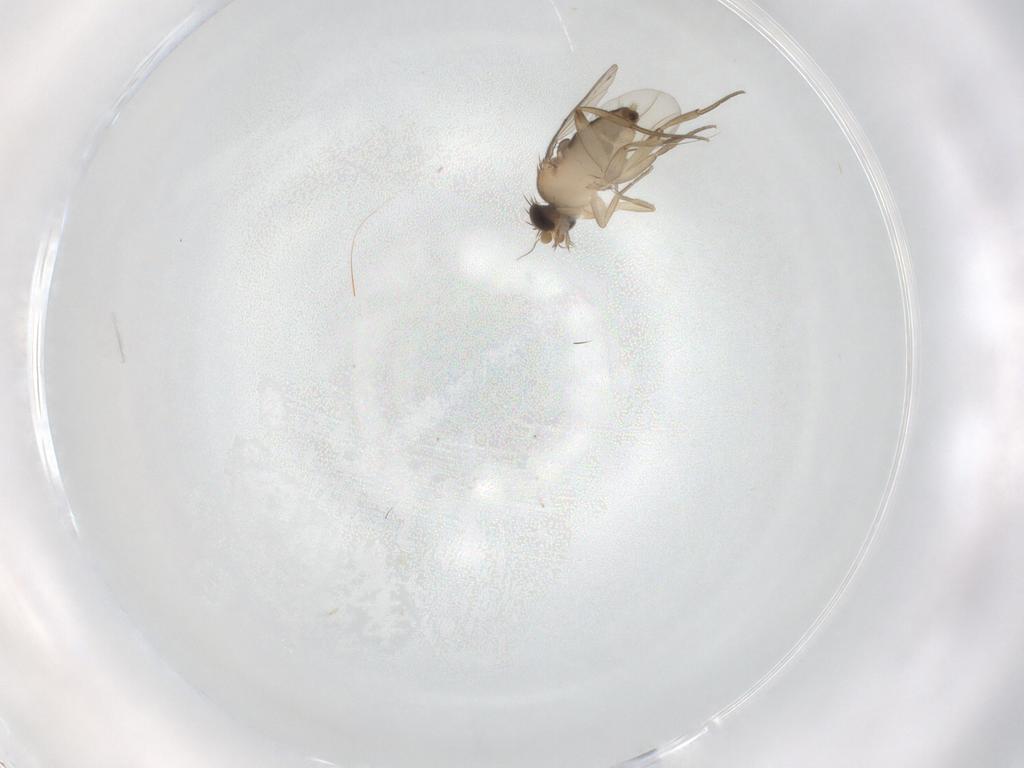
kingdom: Animalia
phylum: Arthropoda
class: Insecta
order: Diptera
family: Phoridae
